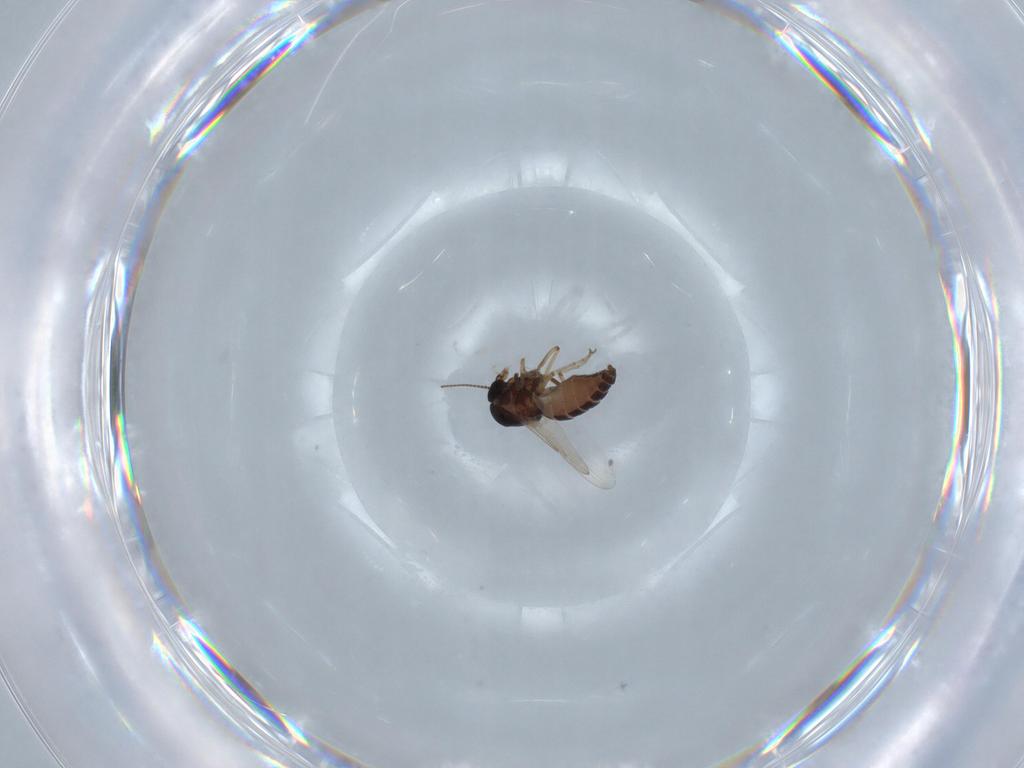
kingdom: Animalia
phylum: Arthropoda
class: Insecta
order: Diptera
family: Ceratopogonidae
